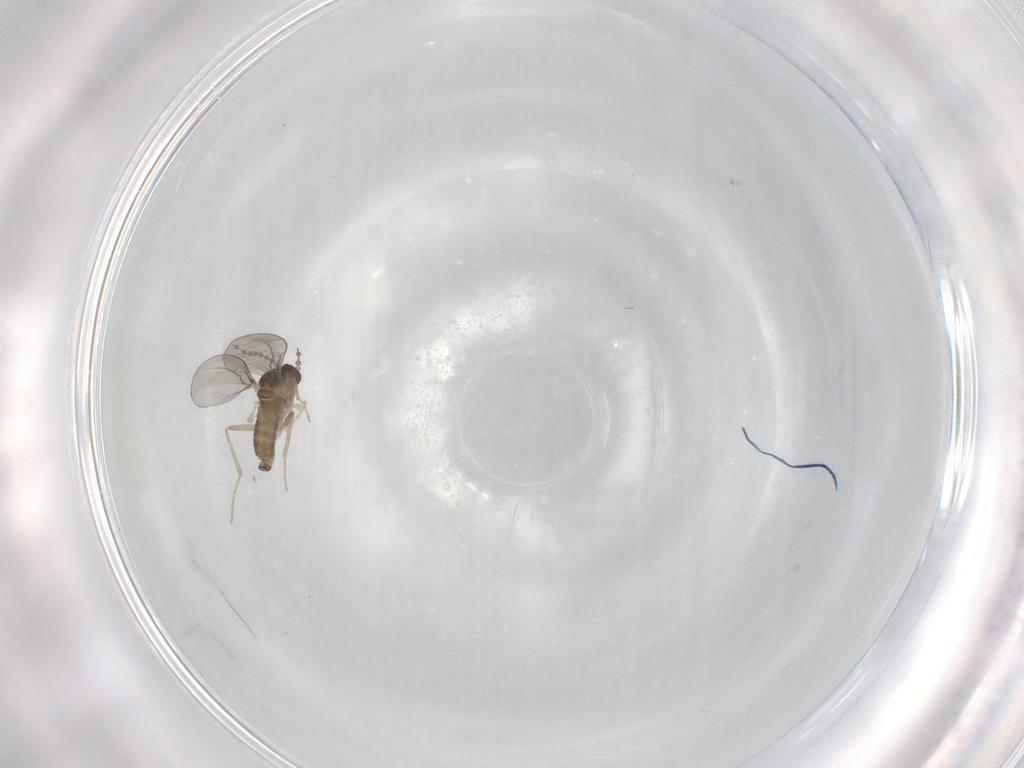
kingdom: Animalia
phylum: Arthropoda
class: Insecta
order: Diptera
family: Cecidomyiidae
